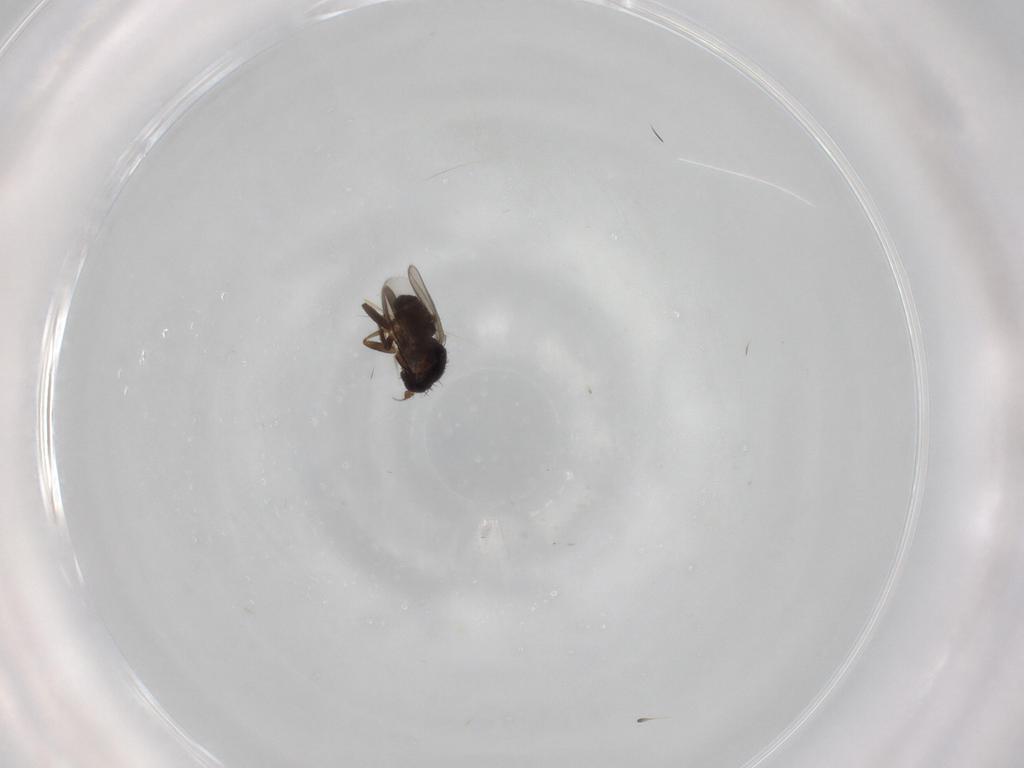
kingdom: Animalia
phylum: Arthropoda
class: Insecta
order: Diptera
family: Sphaeroceridae
